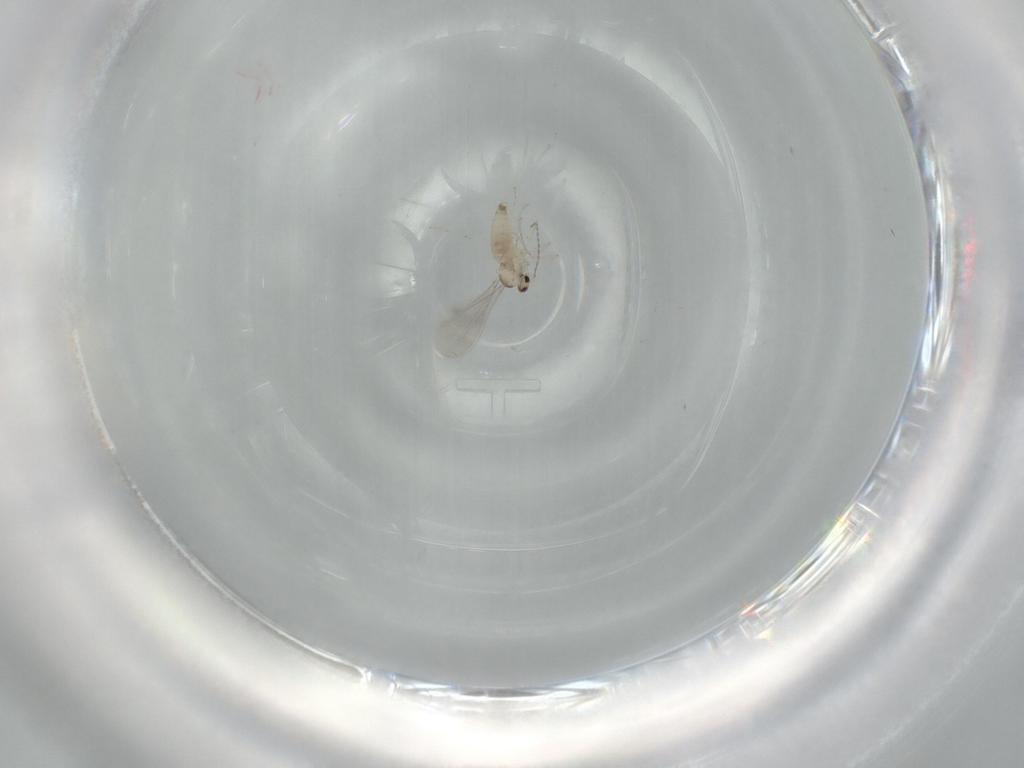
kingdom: Animalia
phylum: Arthropoda
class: Insecta
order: Diptera
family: Cecidomyiidae
